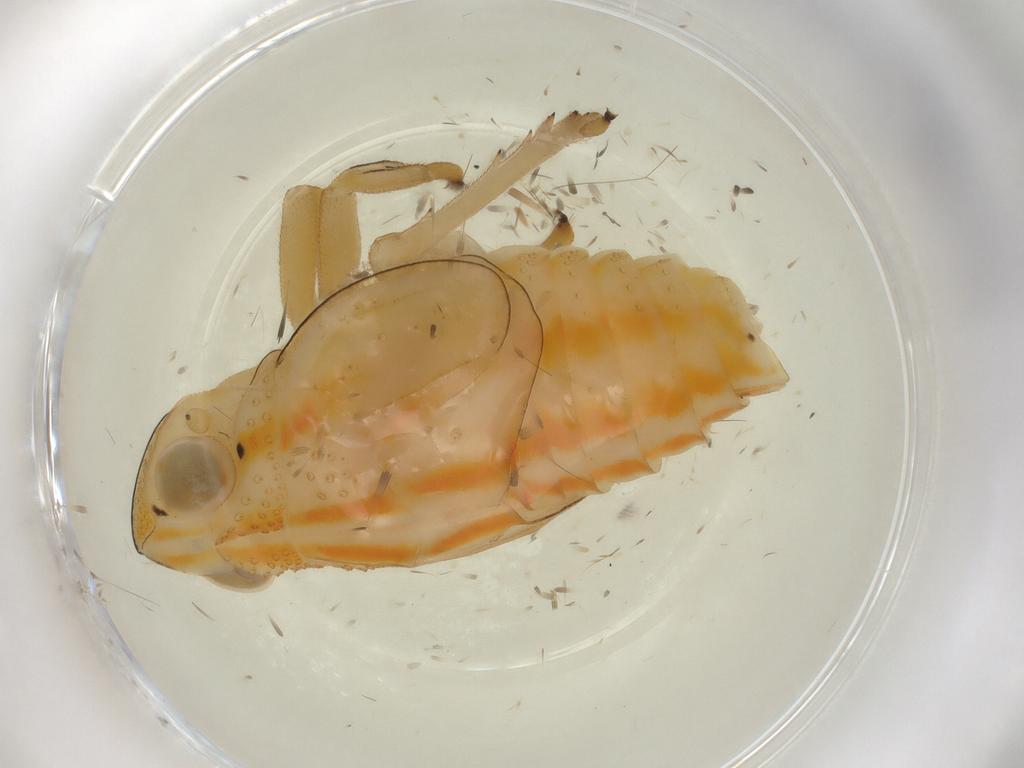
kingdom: Animalia
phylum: Arthropoda
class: Insecta
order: Hemiptera
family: Issidae
